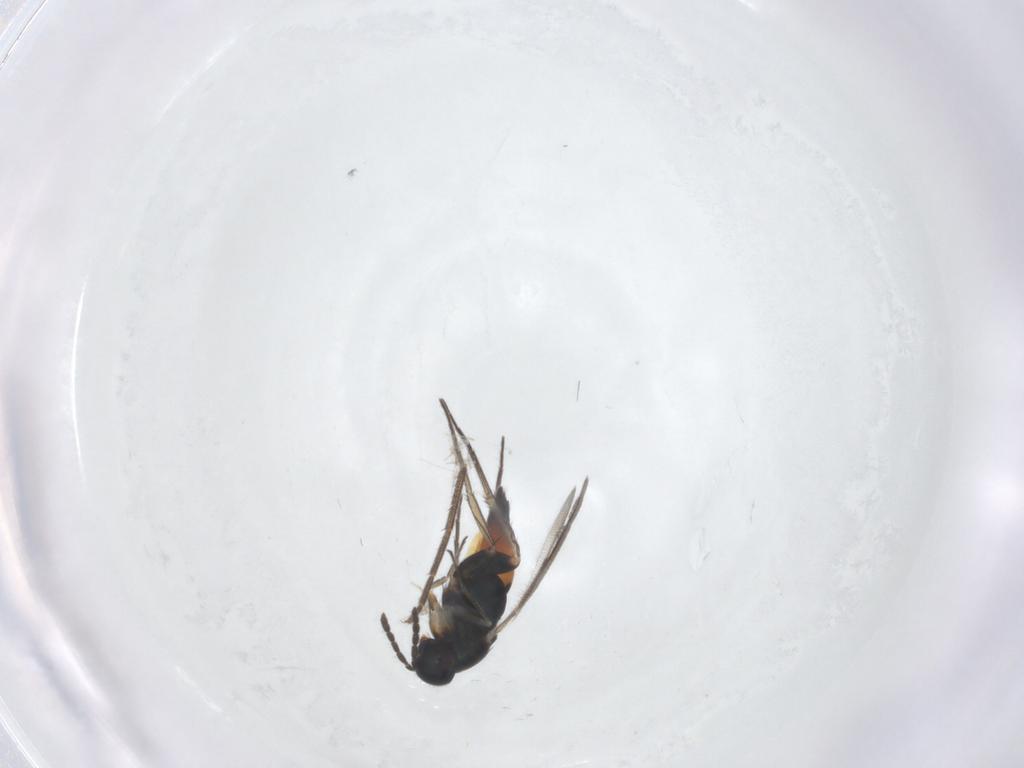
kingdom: Animalia
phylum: Arthropoda
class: Insecta
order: Hymenoptera
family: Eulophidae
